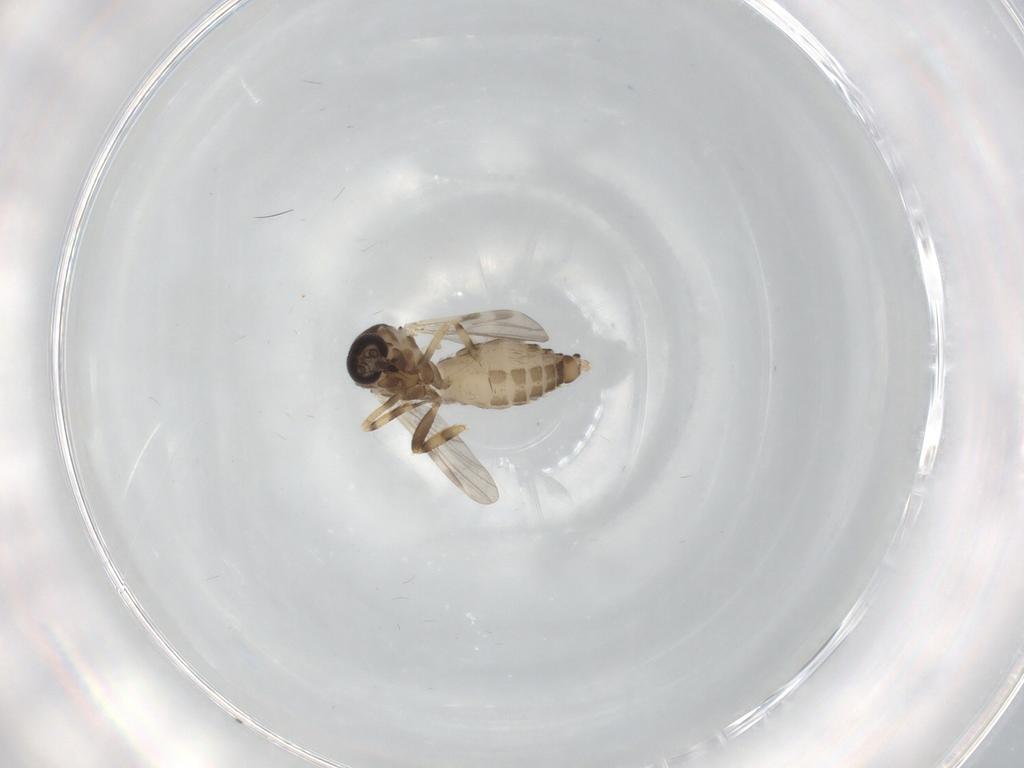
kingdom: Animalia
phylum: Arthropoda
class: Insecta
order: Diptera
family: Ceratopogonidae
